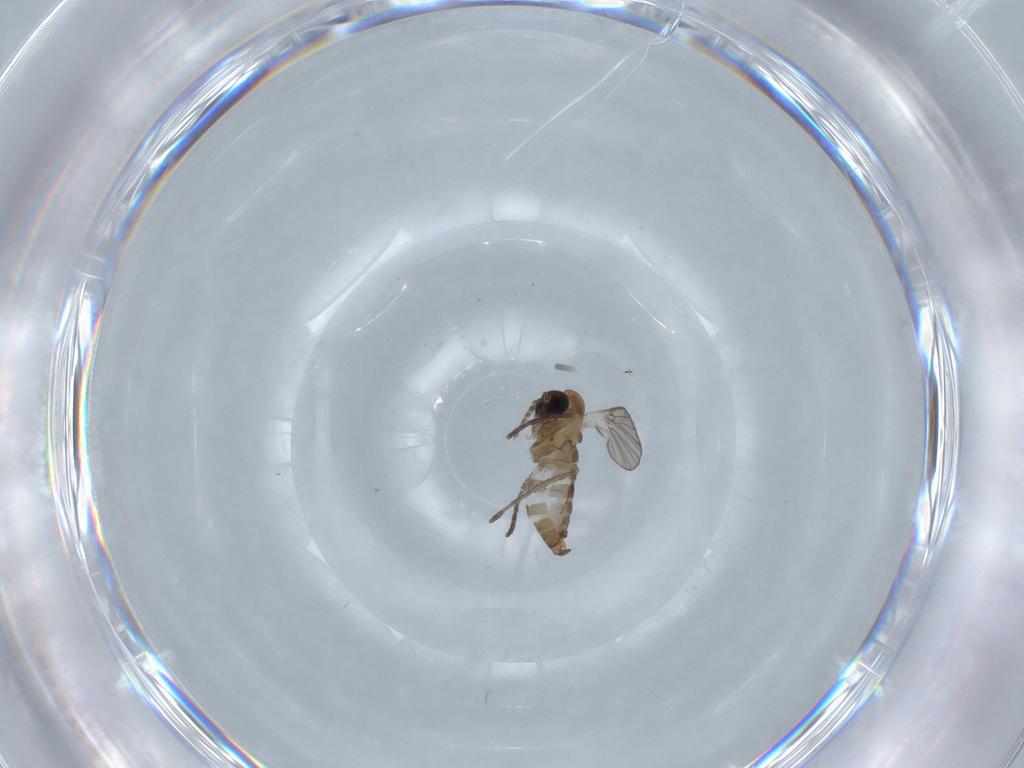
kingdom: Animalia
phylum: Arthropoda
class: Insecta
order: Diptera
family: Psychodidae
